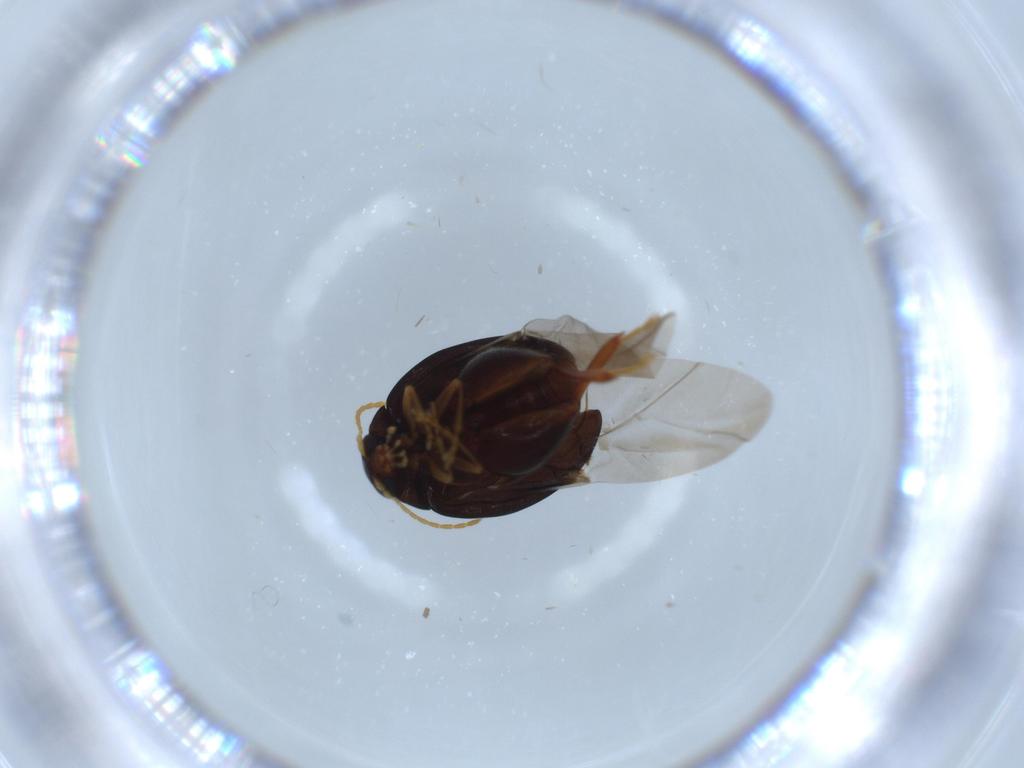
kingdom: Animalia
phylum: Arthropoda
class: Insecta
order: Coleoptera
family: Chrysomelidae
